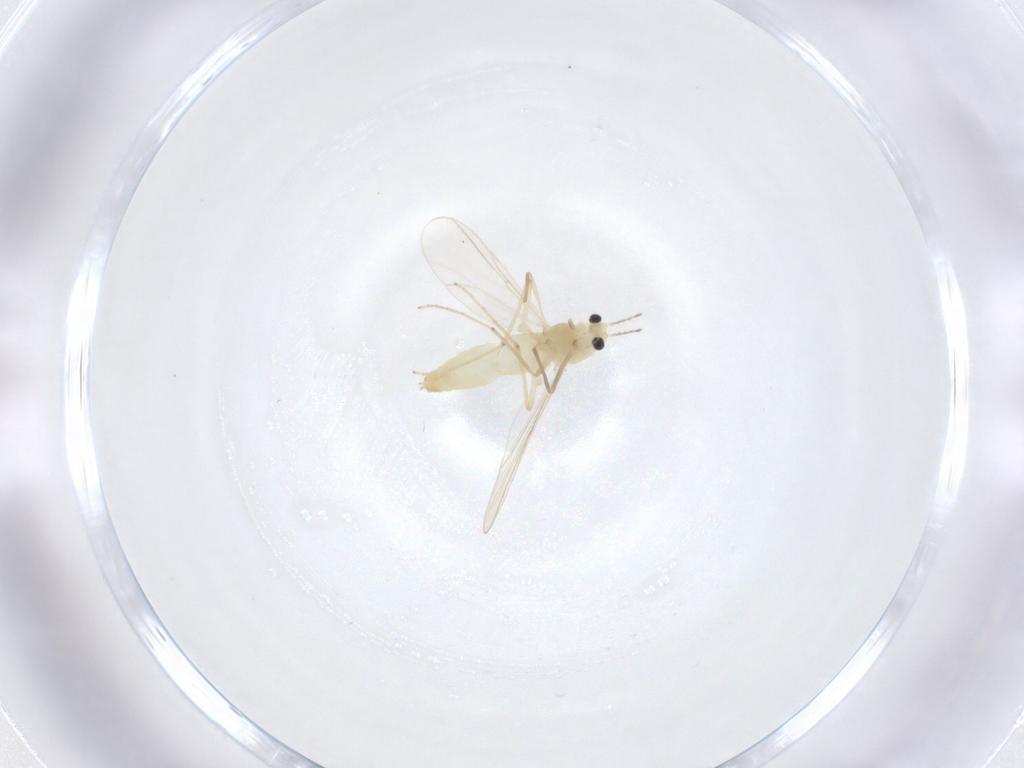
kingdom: Animalia
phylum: Arthropoda
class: Insecta
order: Diptera
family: Chironomidae
